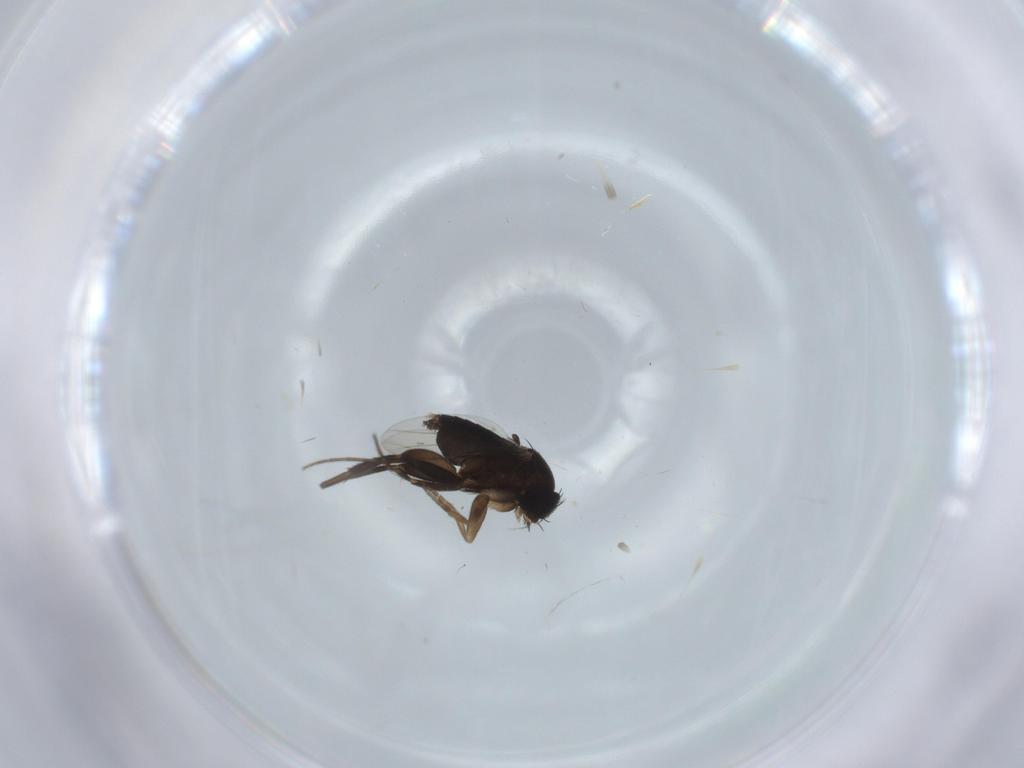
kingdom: Animalia
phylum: Arthropoda
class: Insecta
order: Diptera
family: Phoridae
